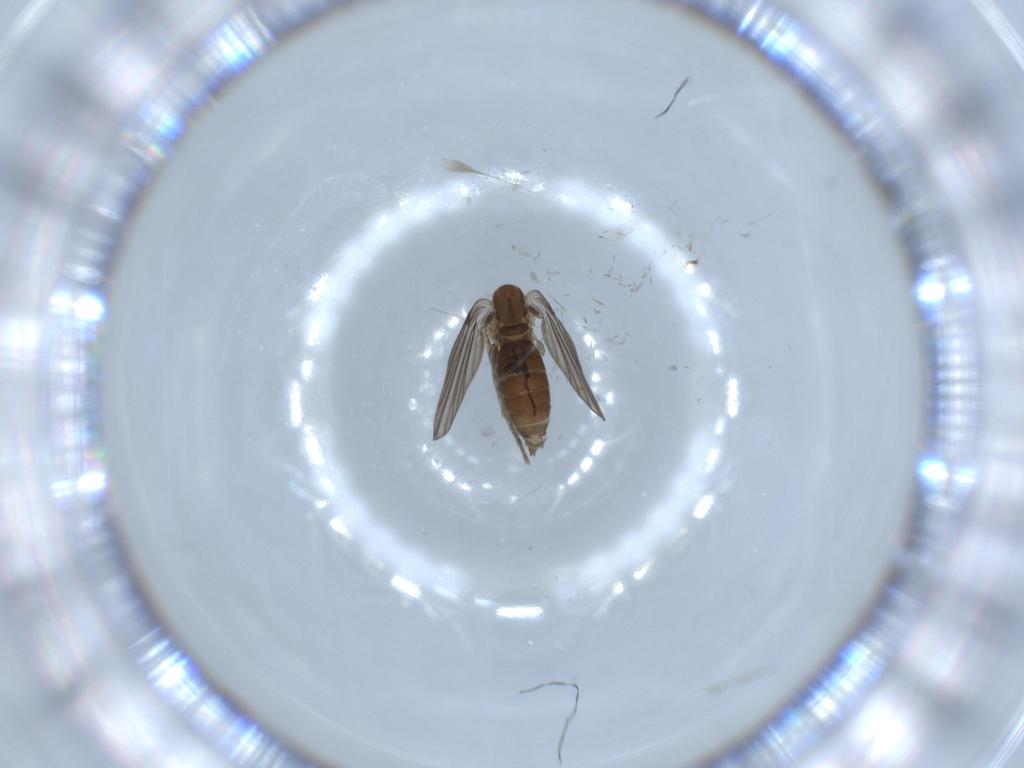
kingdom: Animalia
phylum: Arthropoda
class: Insecta
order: Diptera
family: Psychodidae
